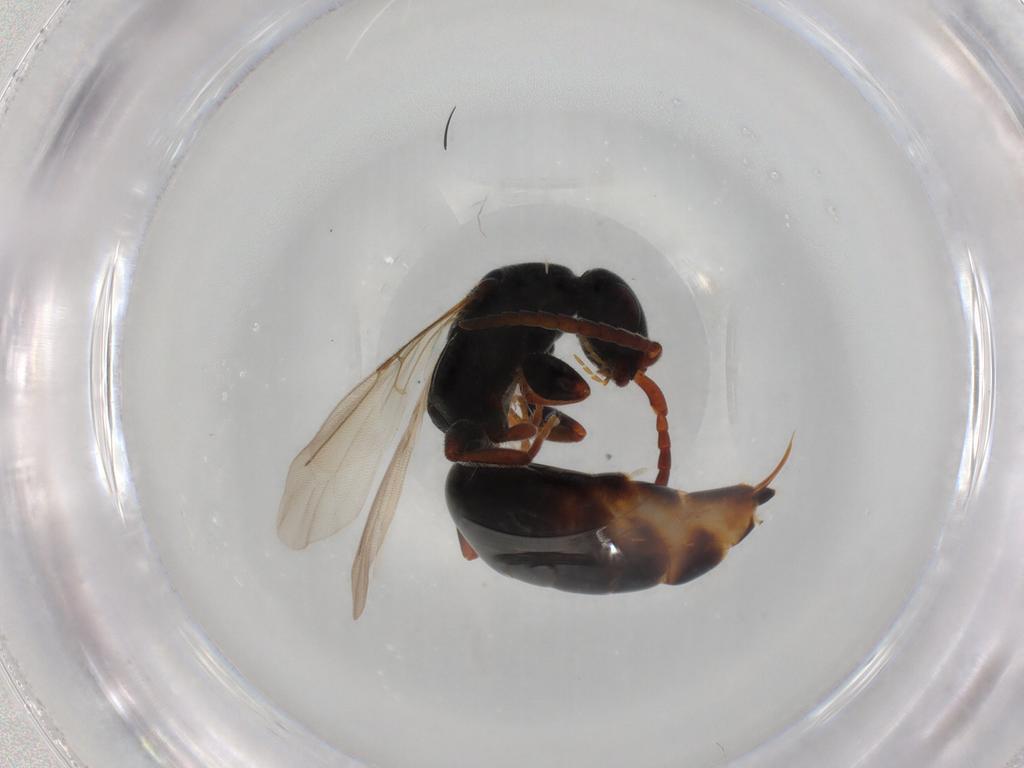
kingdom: Animalia
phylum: Arthropoda
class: Insecta
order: Hymenoptera
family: Bethylidae
